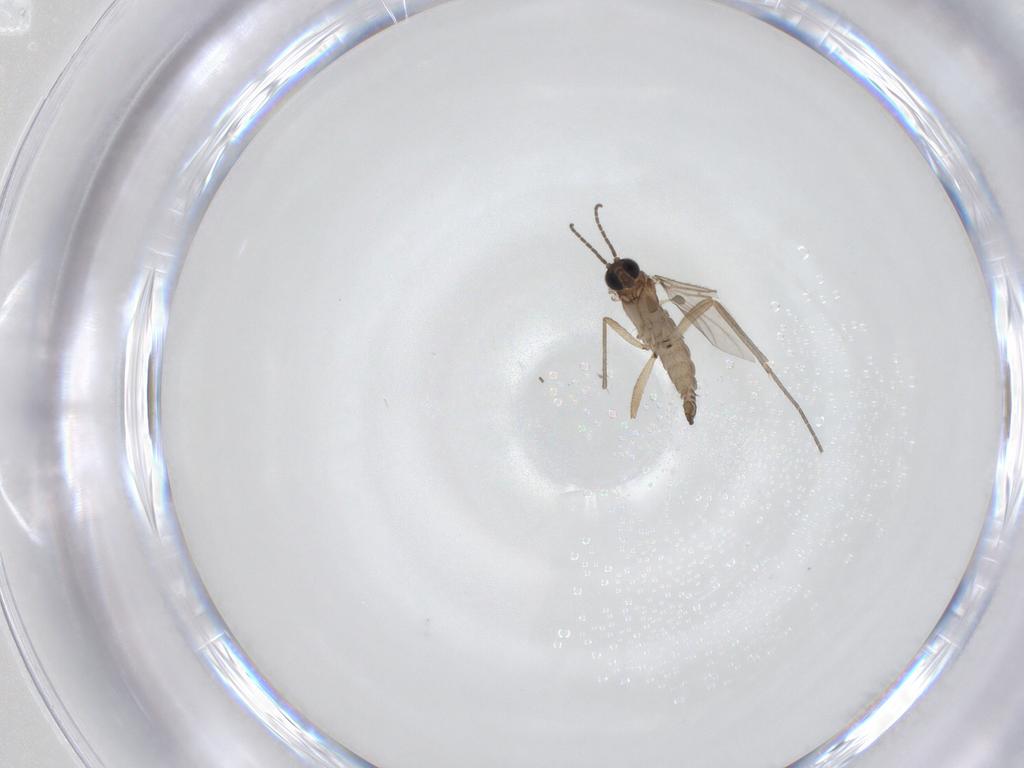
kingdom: Animalia
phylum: Arthropoda
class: Insecta
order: Diptera
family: Sciaridae
